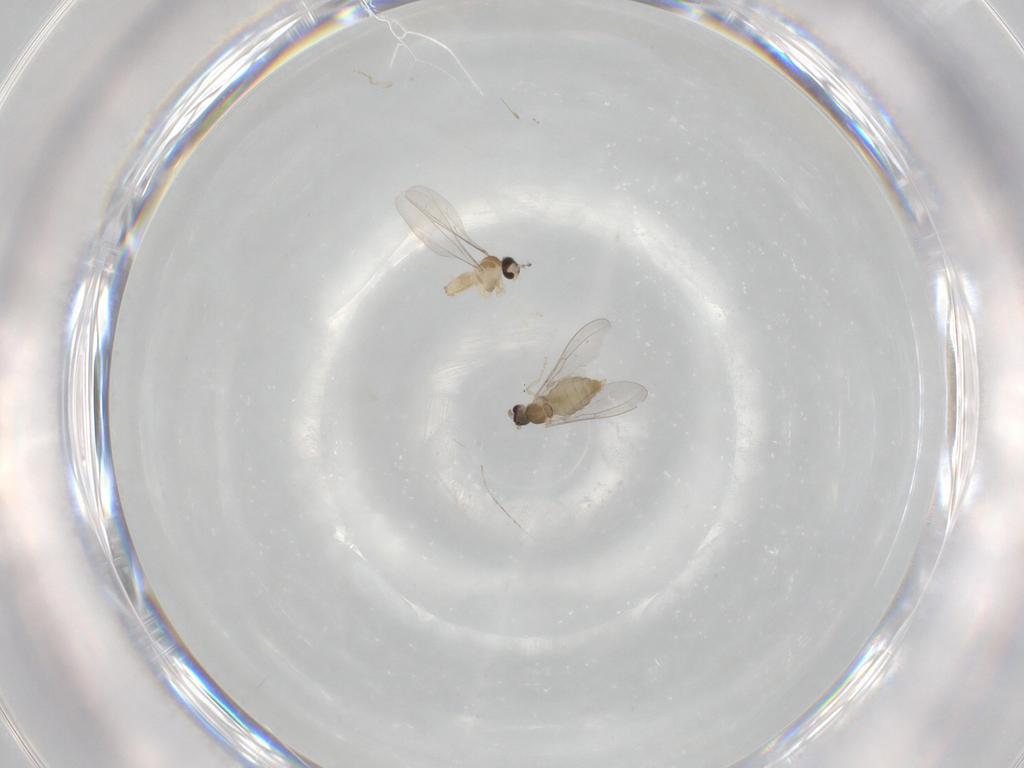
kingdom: Animalia
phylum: Arthropoda
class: Insecta
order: Diptera
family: Cecidomyiidae
